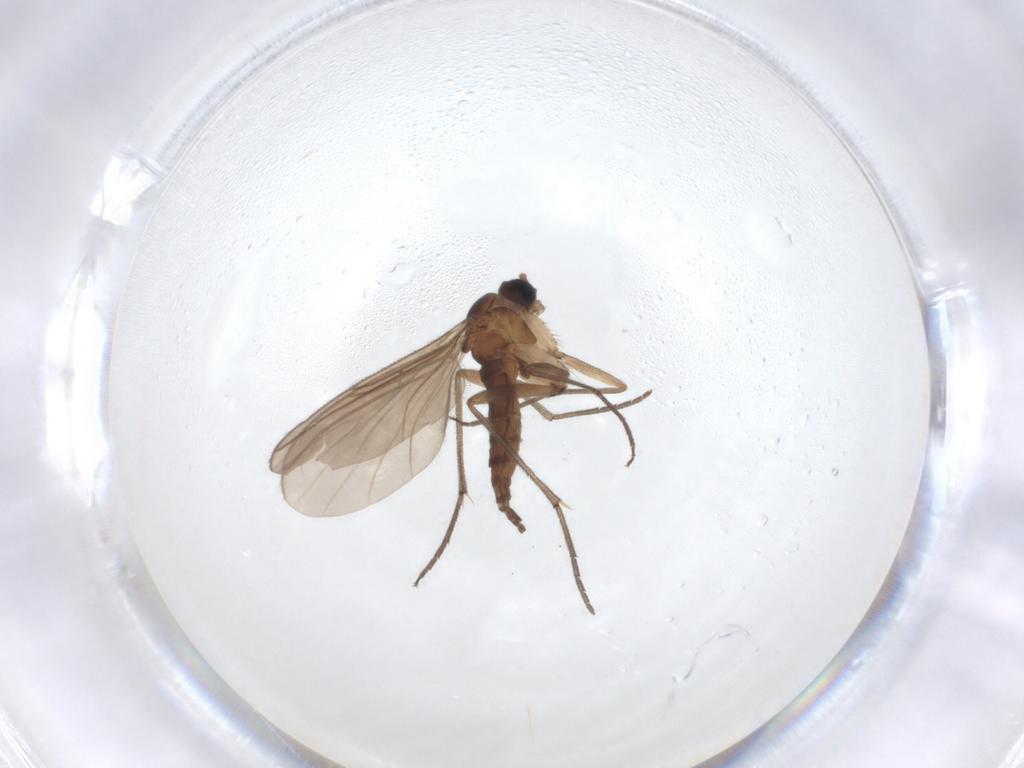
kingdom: Animalia
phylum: Arthropoda
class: Insecta
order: Diptera
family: Sciaridae
